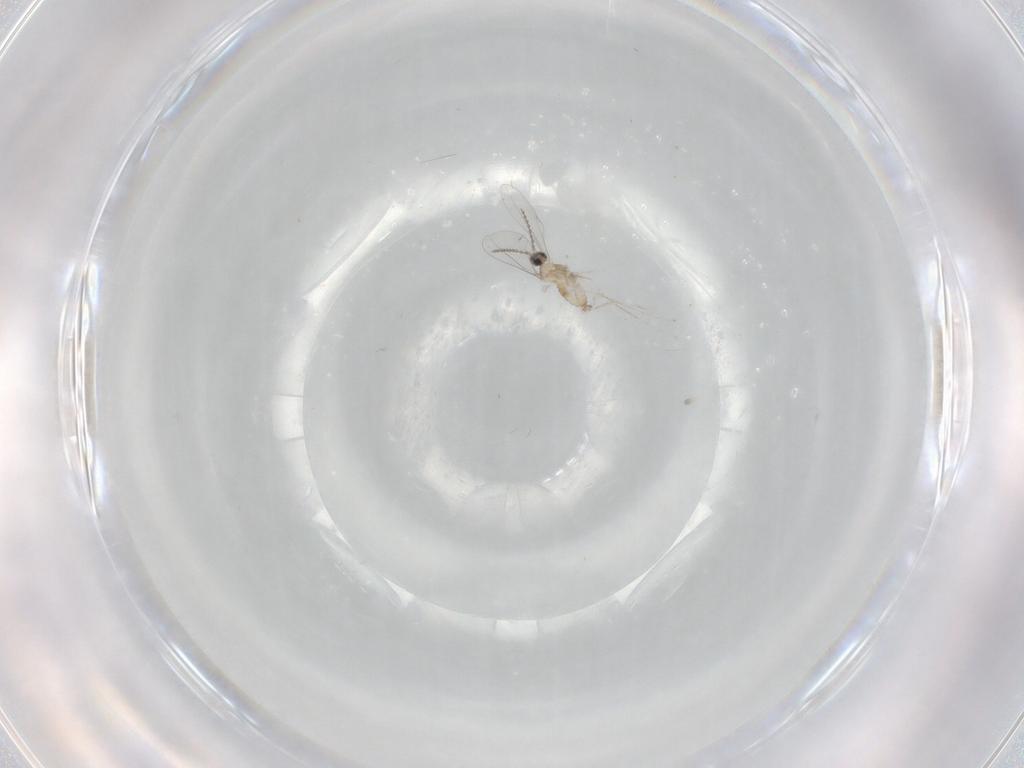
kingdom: Animalia
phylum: Arthropoda
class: Insecta
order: Diptera
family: Cecidomyiidae
